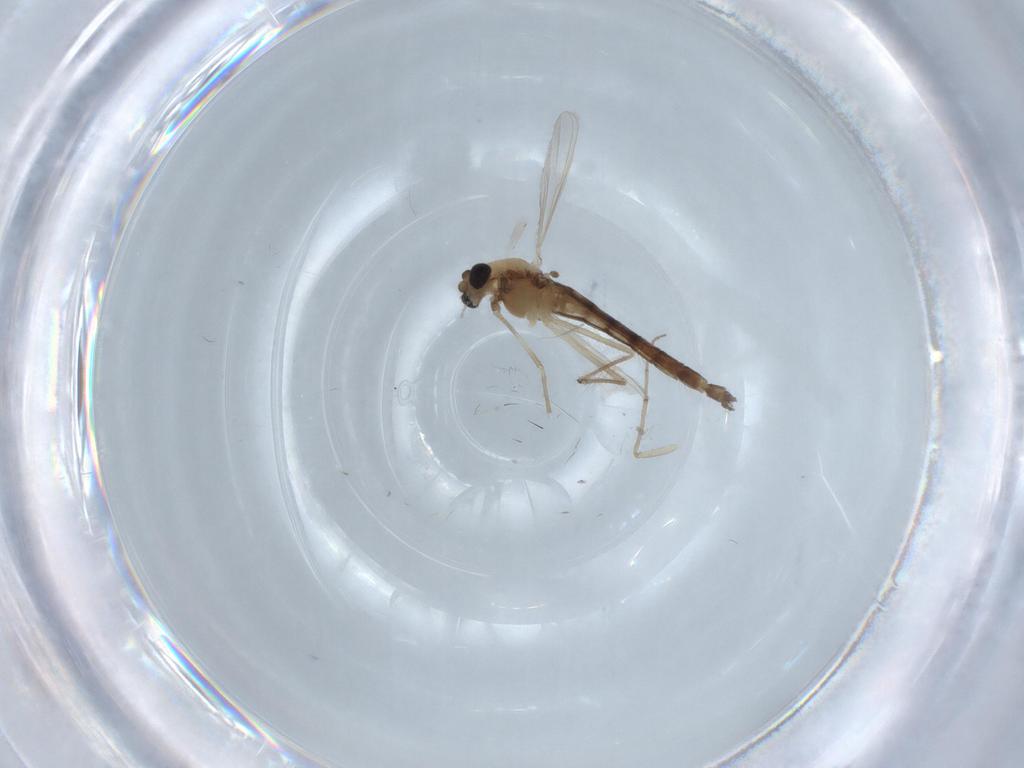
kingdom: Animalia
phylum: Arthropoda
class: Insecta
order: Diptera
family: Chironomidae
